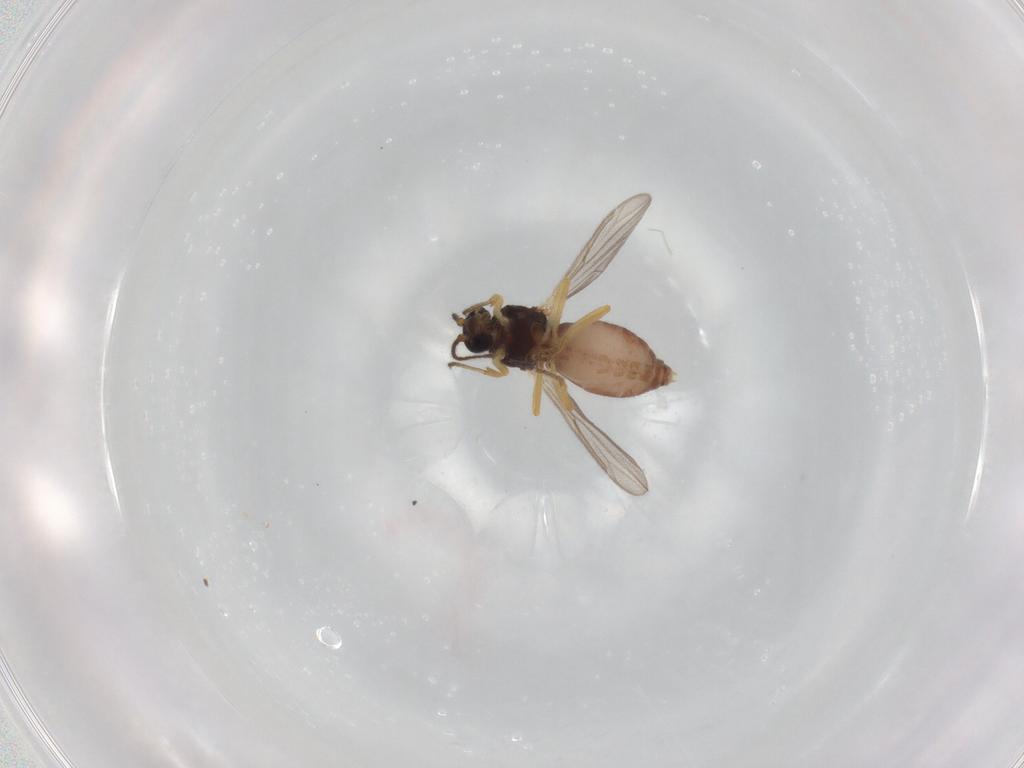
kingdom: Animalia
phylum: Arthropoda
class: Insecta
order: Diptera
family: Ceratopogonidae
